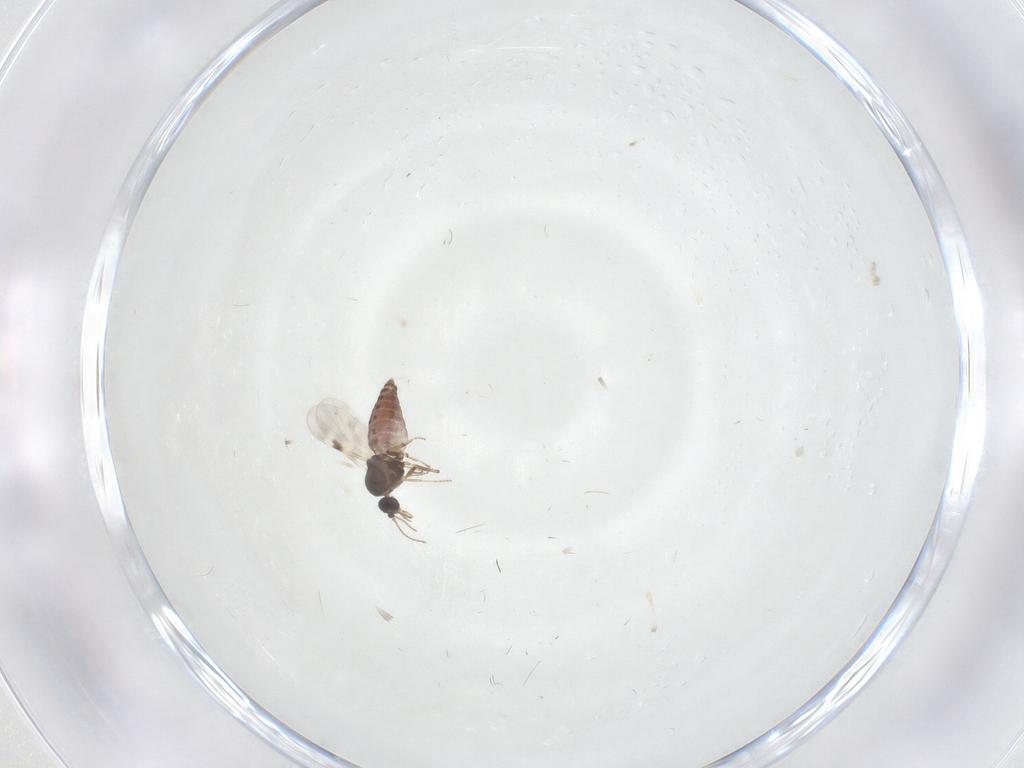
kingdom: Animalia
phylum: Arthropoda
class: Insecta
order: Diptera
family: Chironomidae
